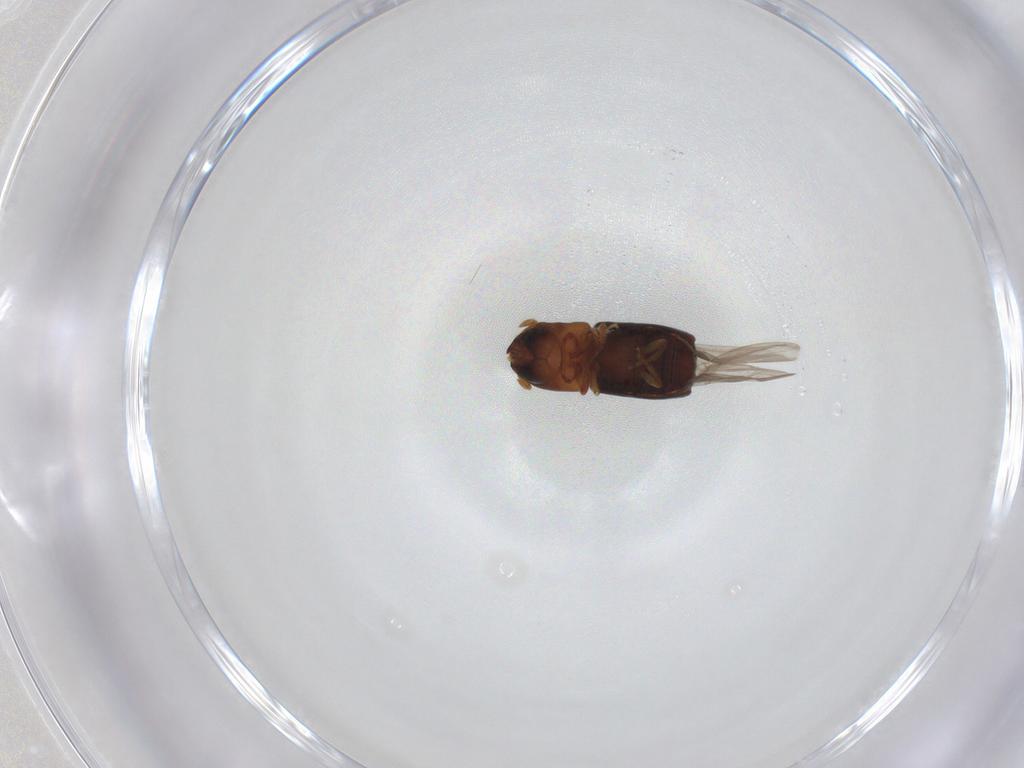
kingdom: Animalia
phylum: Arthropoda
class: Insecta
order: Coleoptera
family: Curculionidae
